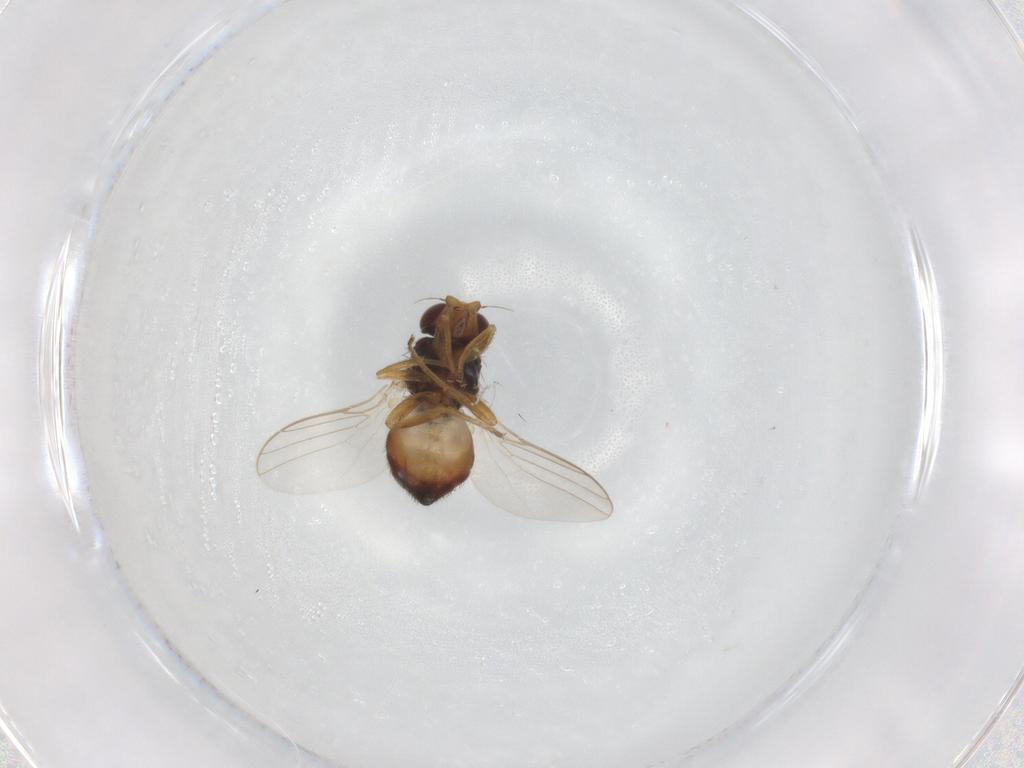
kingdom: Animalia
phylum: Arthropoda
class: Insecta
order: Diptera
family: Chloropidae
